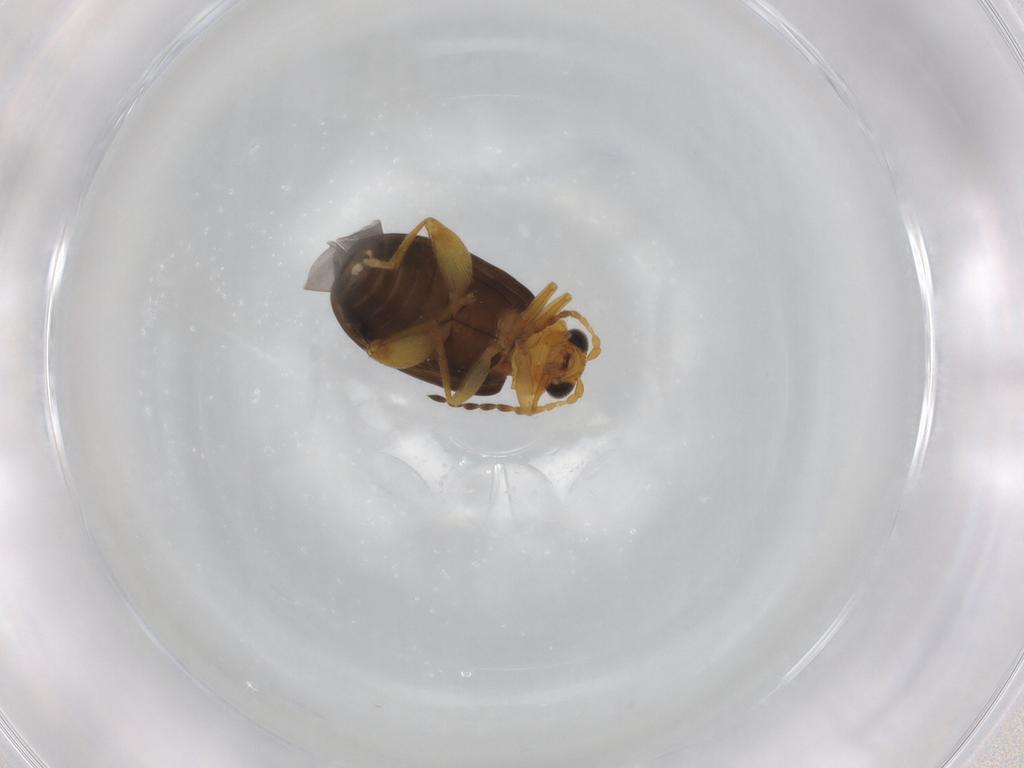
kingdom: Animalia
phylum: Arthropoda
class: Insecta
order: Coleoptera
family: Chrysomelidae
